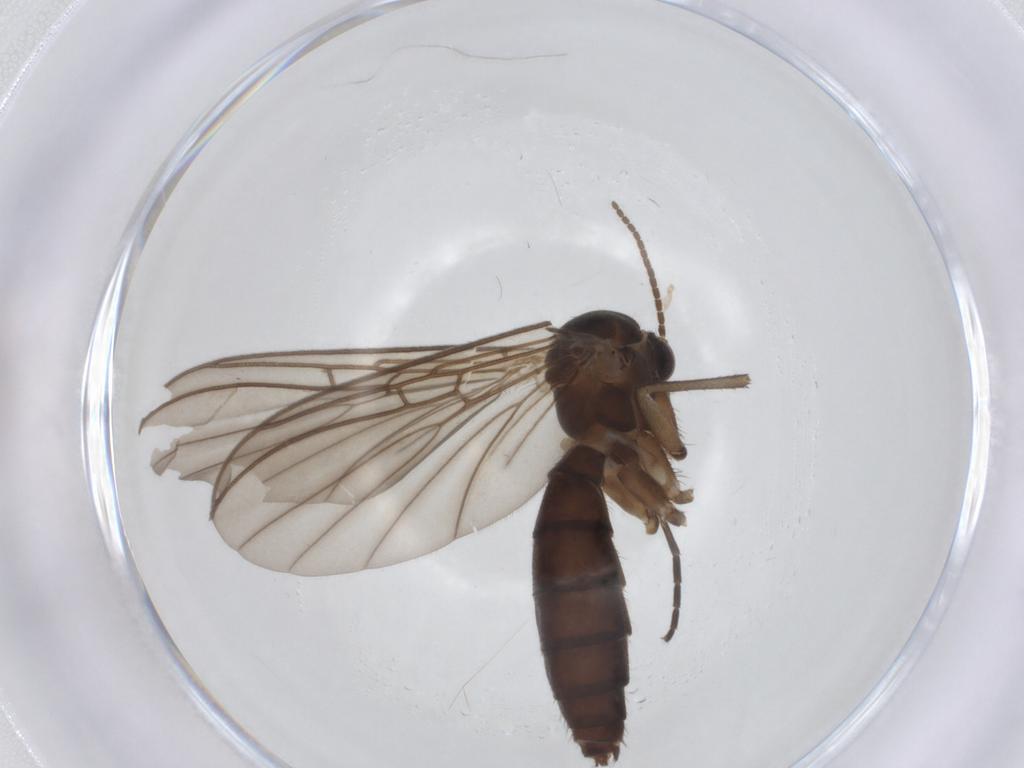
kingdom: Animalia
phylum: Arthropoda
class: Insecta
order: Diptera
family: Mycetophilidae
